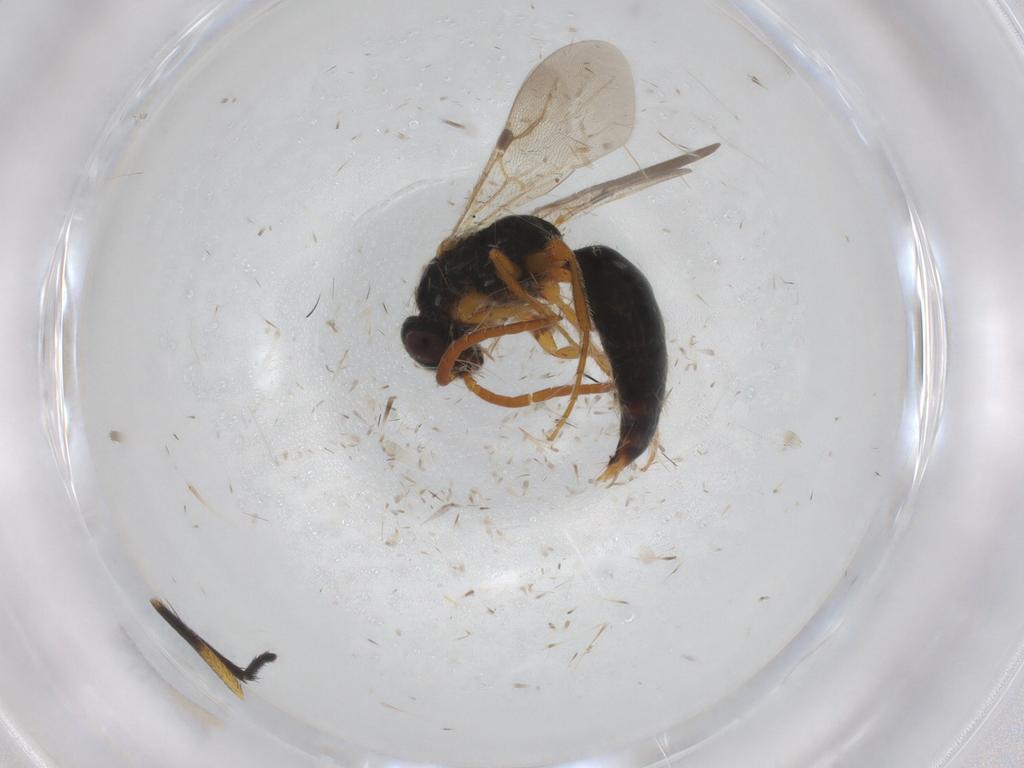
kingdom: Animalia
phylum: Arthropoda
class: Insecta
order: Hymenoptera
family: Bethylidae
